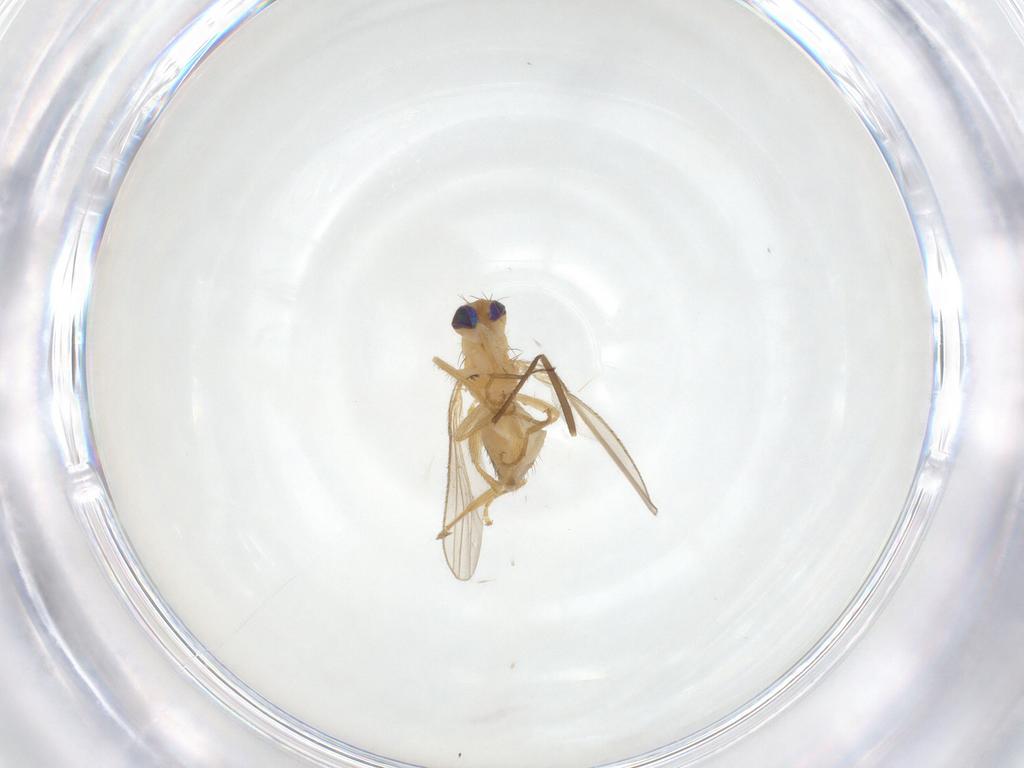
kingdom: Animalia
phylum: Arthropoda
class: Insecta
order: Diptera
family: Chyromyidae
